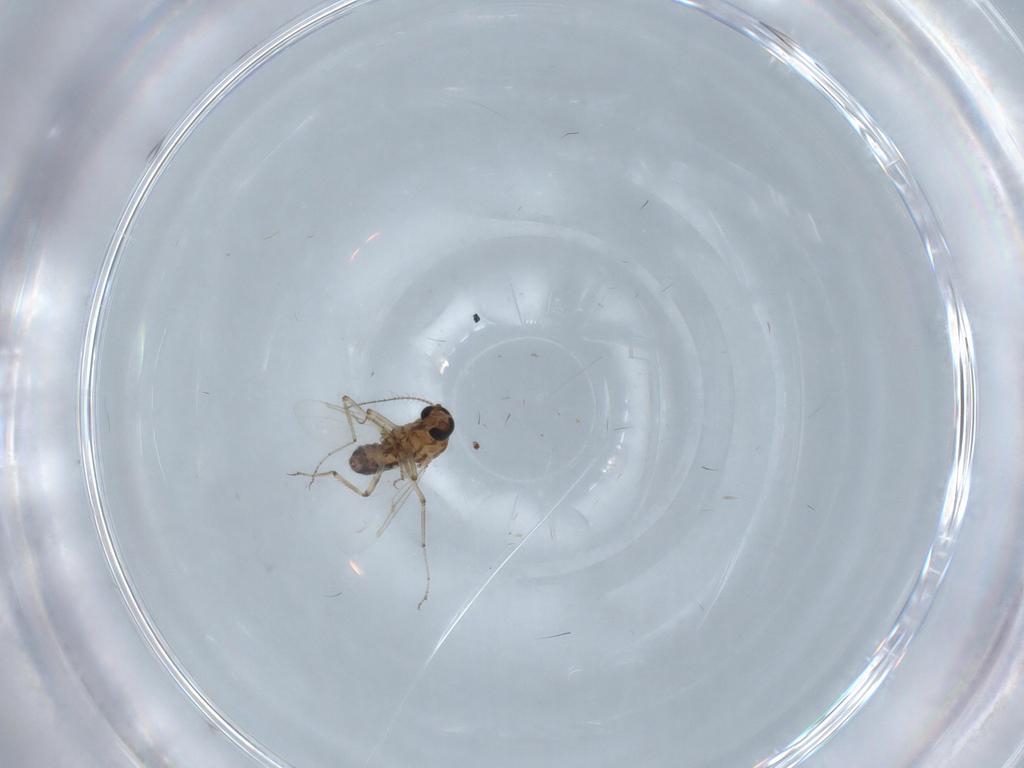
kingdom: Animalia
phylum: Arthropoda
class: Insecta
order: Diptera
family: Ceratopogonidae
